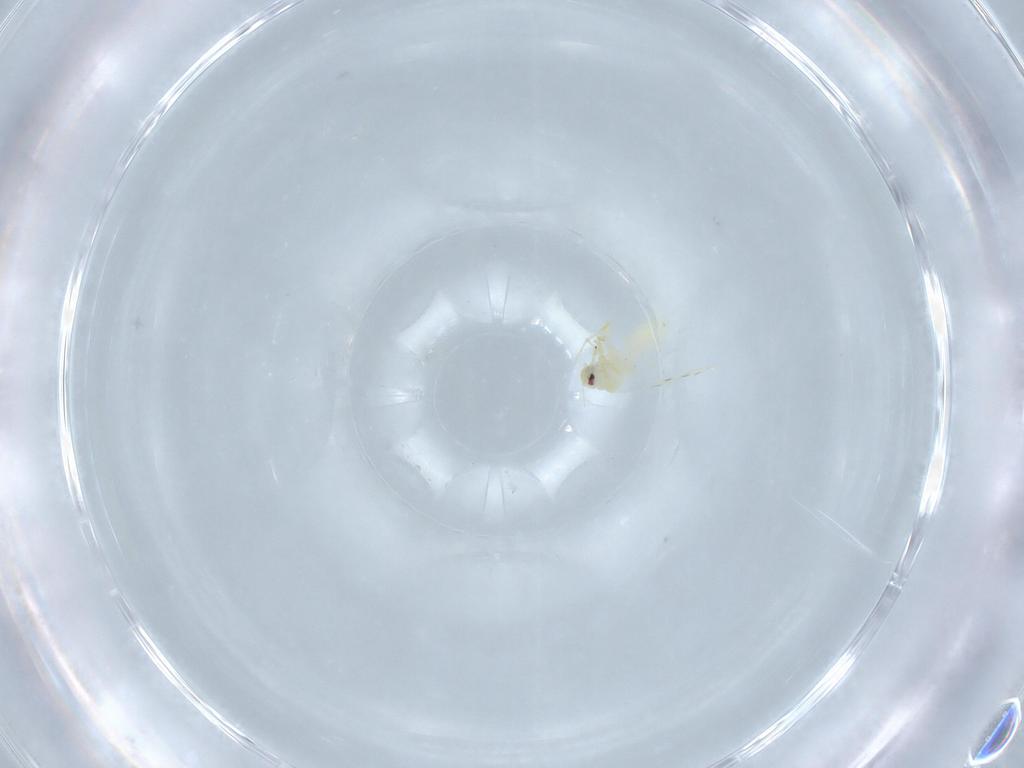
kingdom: Animalia
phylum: Arthropoda
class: Insecta
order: Hemiptera
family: Aleyrodidae
